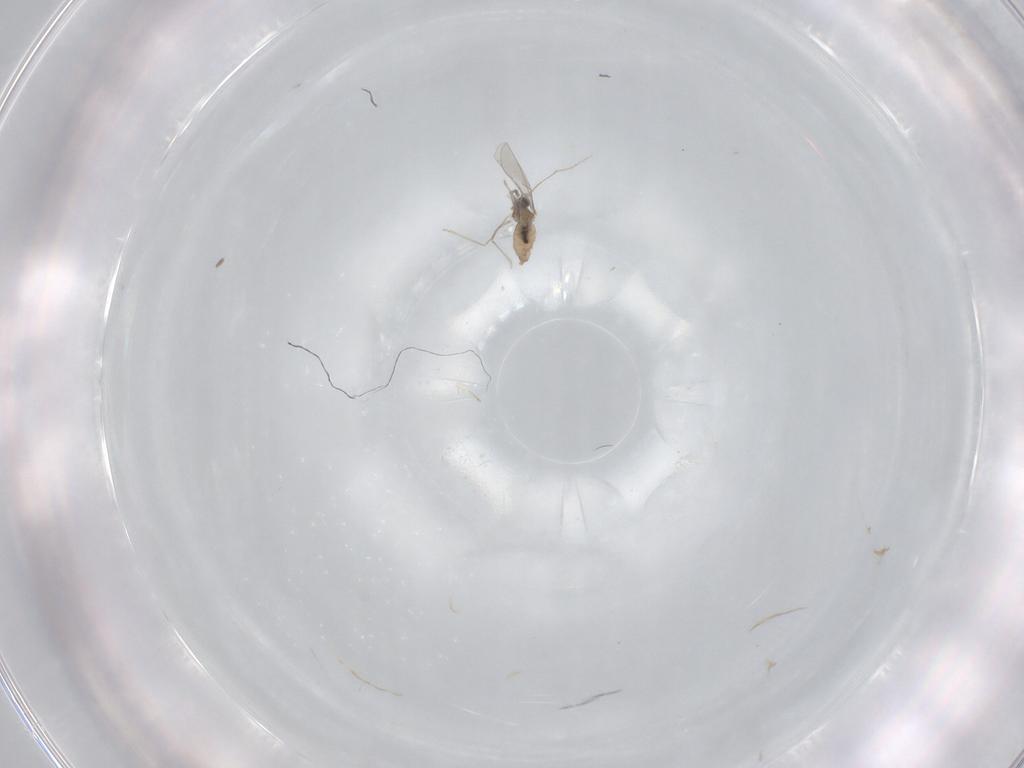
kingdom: Animalia
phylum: Arthropoda
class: Insecta
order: Diptera
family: Cecidomyiidae
